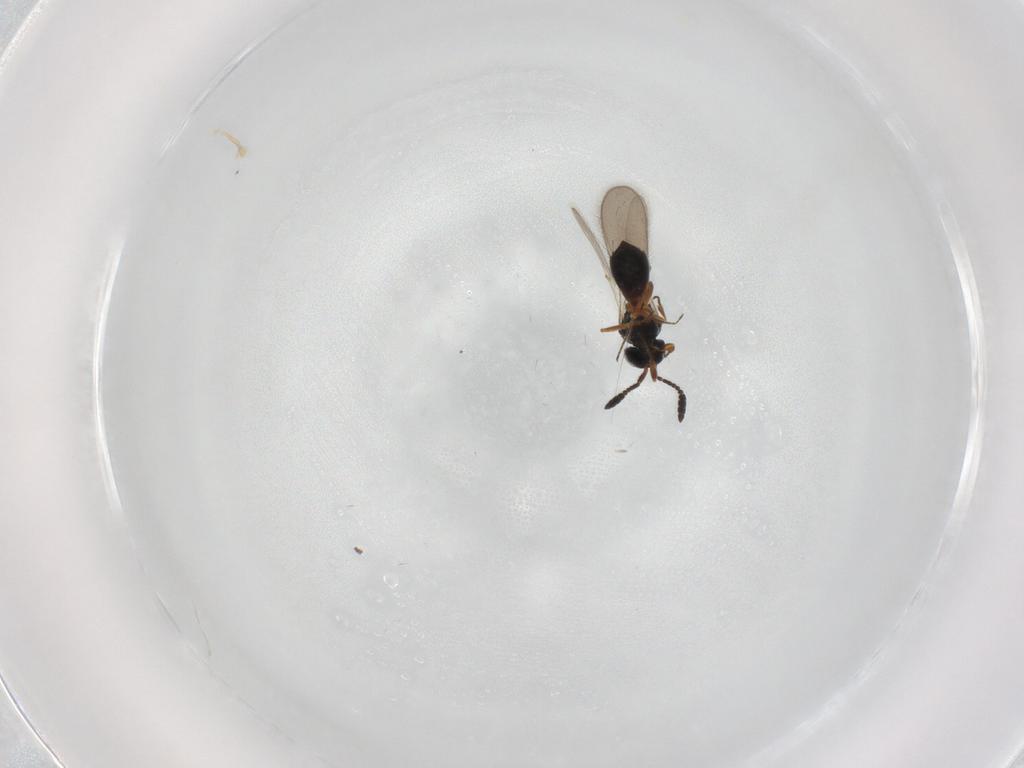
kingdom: Animalia
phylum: Arthropoda
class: Insecta
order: Hymenoptera
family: Scelionidae
